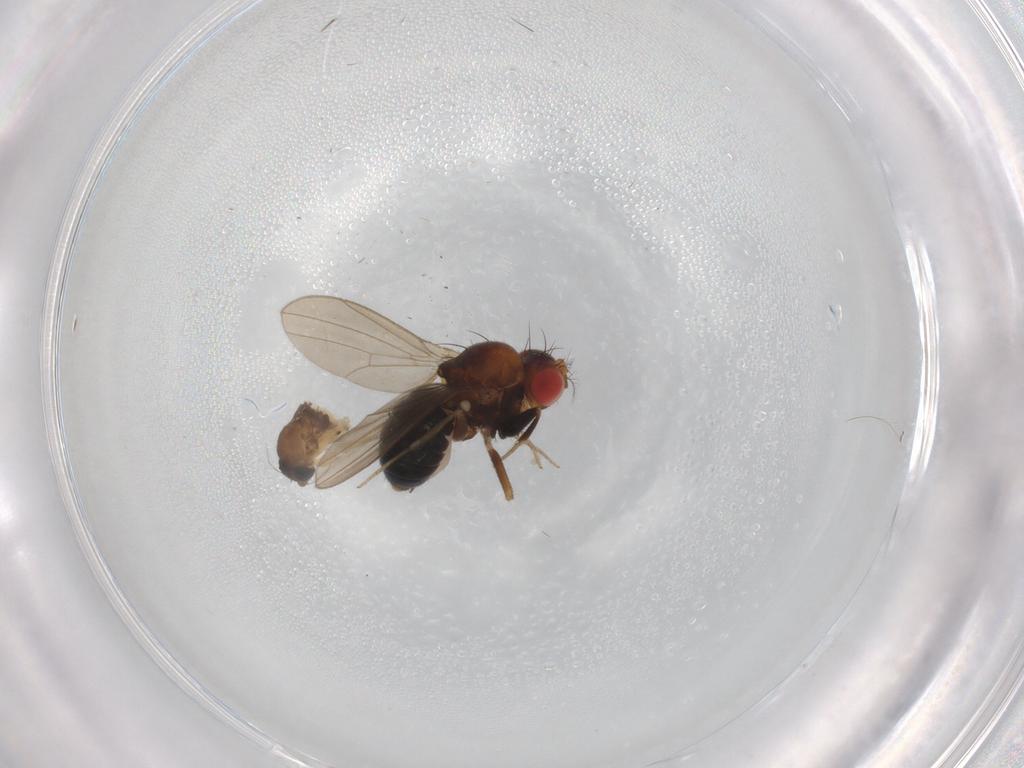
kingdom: Animalia
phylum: Arthropoda
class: Insecta
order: Diptera
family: Phoridae
